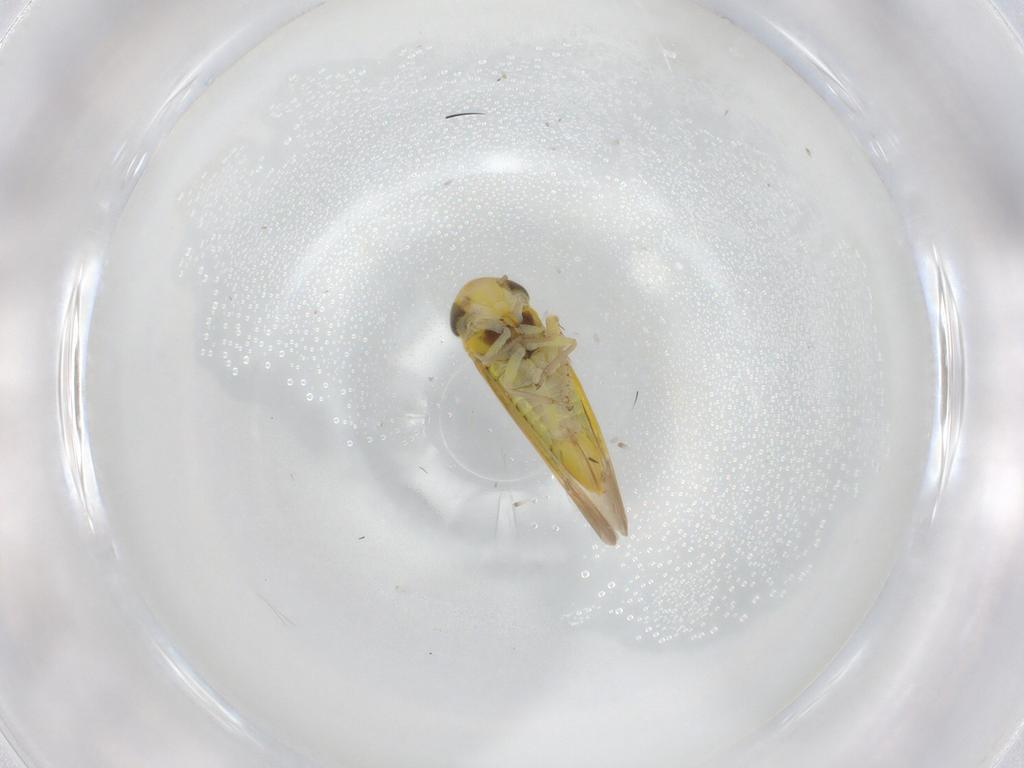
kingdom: Animalia
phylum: Arthropoda
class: Insecta
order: Hemiptera
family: Cicadellidae
